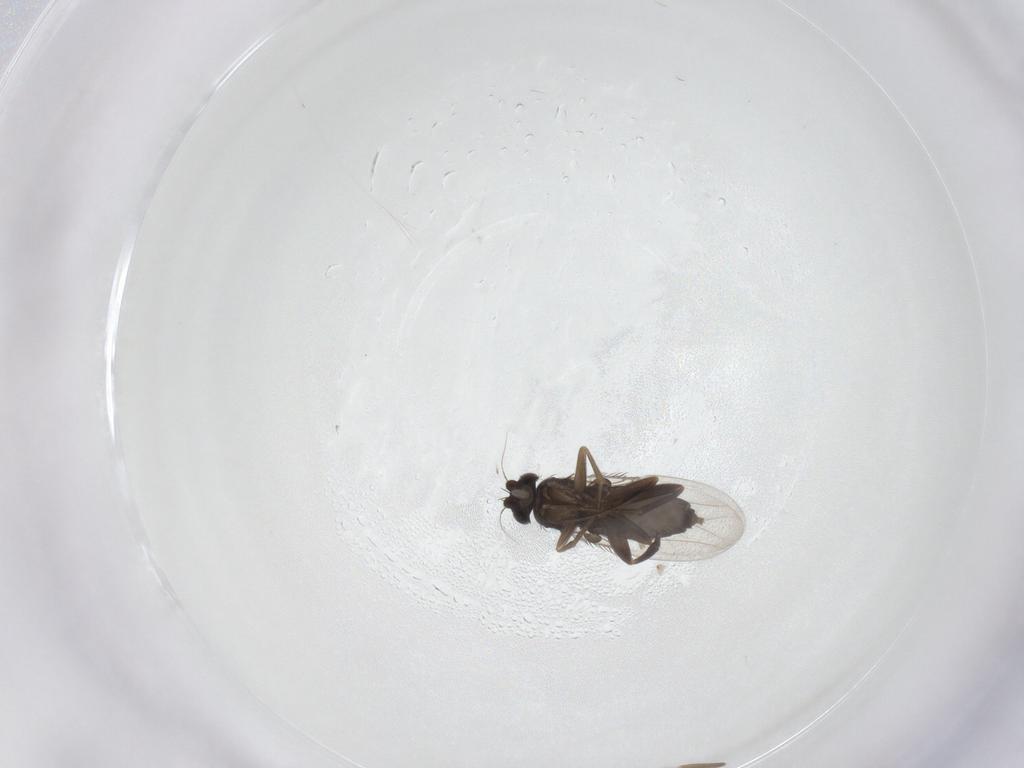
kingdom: Animalia
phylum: Arthropoda
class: Insecta
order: Diptera
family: Cecidomyiidae
